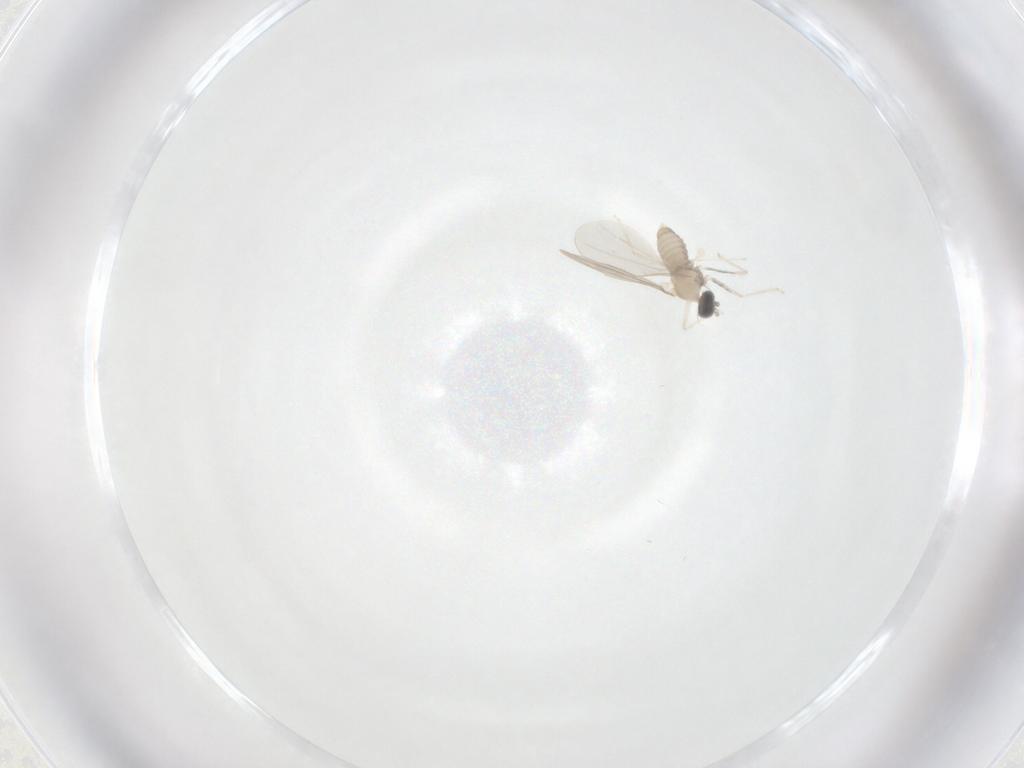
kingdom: Animalia
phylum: Arthropoda
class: Insecta
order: Diptera
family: Cecidomyiidae
